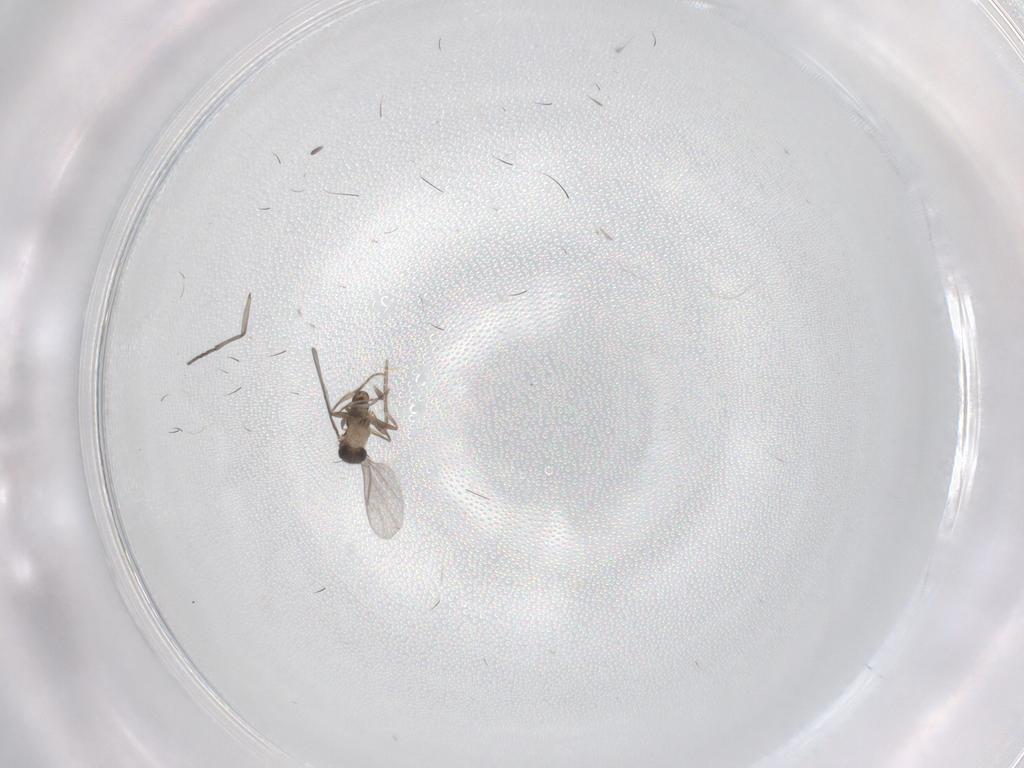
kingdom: Animalia
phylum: Arthropoda
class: Insecta
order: Diptera
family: Sciaridae
